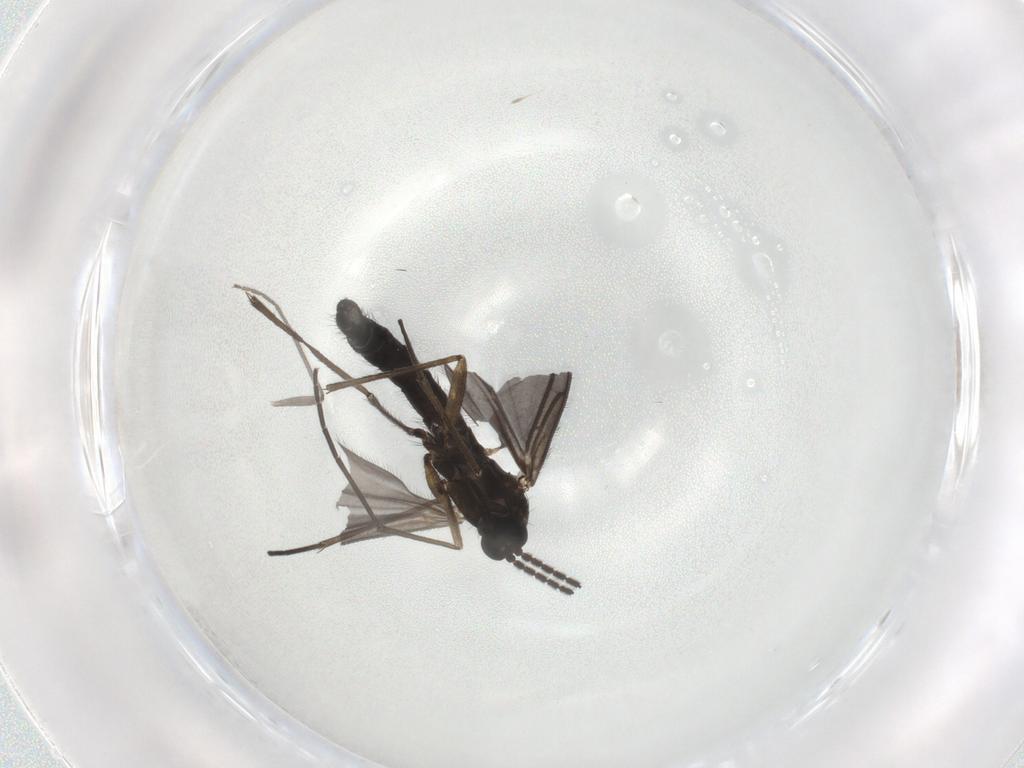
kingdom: Animalia
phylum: Arthropoda
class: Insecta
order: Diptera
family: Sciaridae
